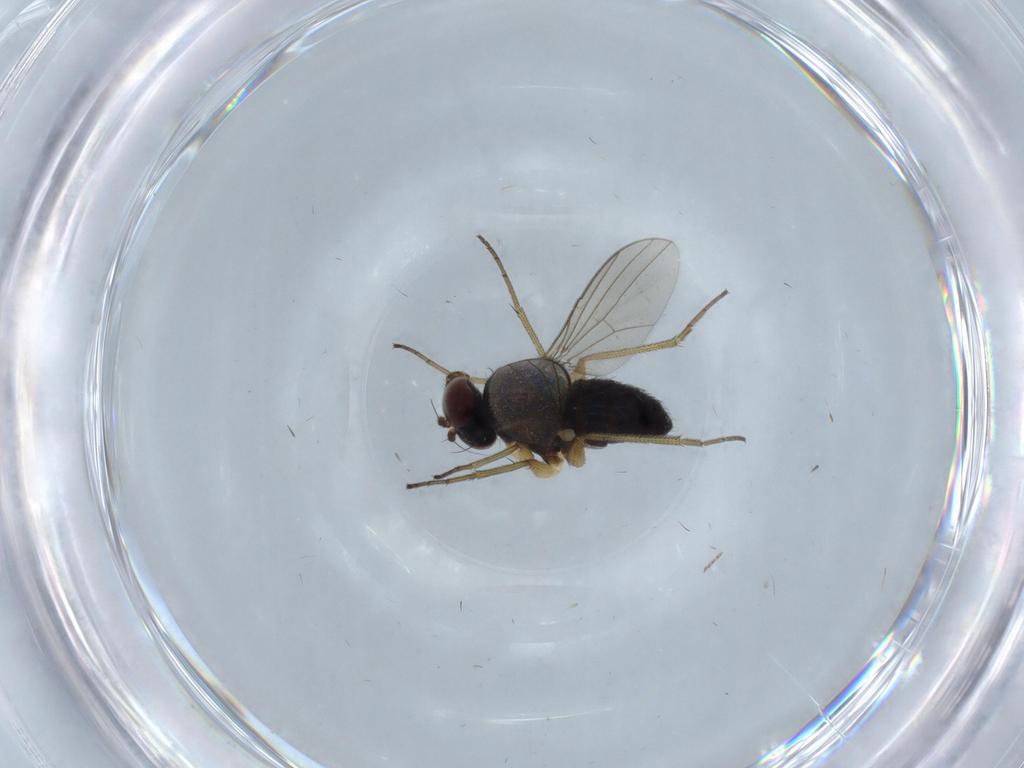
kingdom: Animalia
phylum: Arthropoda
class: Insecta
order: Diptera
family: Dolichopodidae
